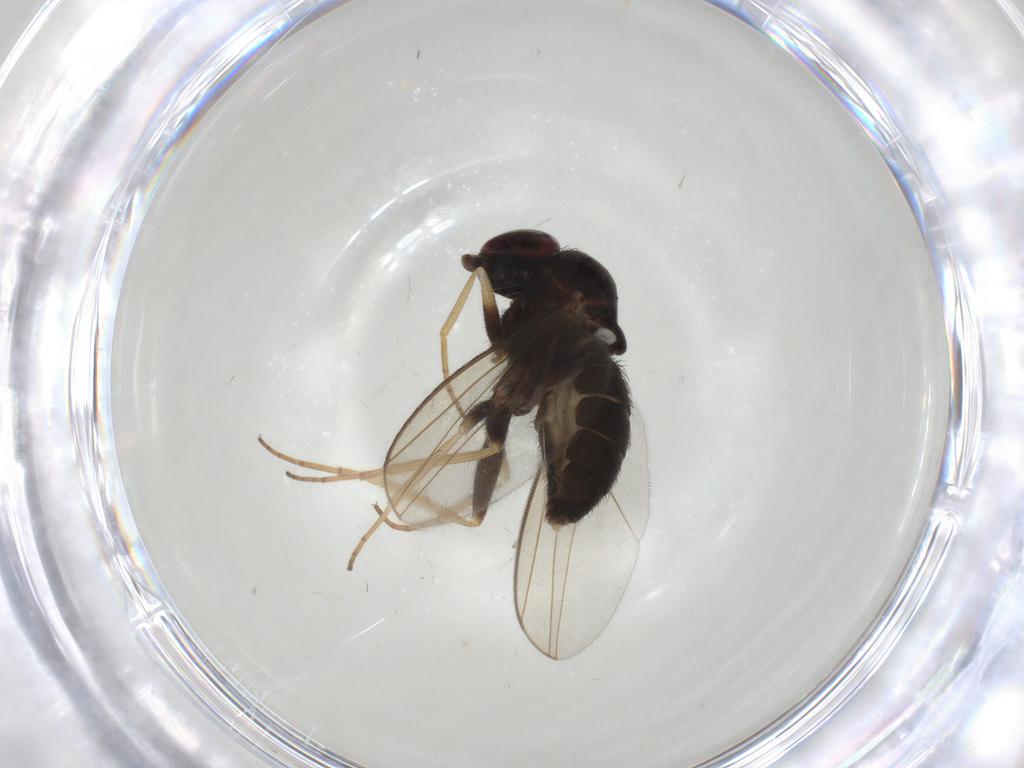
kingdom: Animalia
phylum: Arthropoda
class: Insecta
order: Diptera
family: Dolichopodidae
